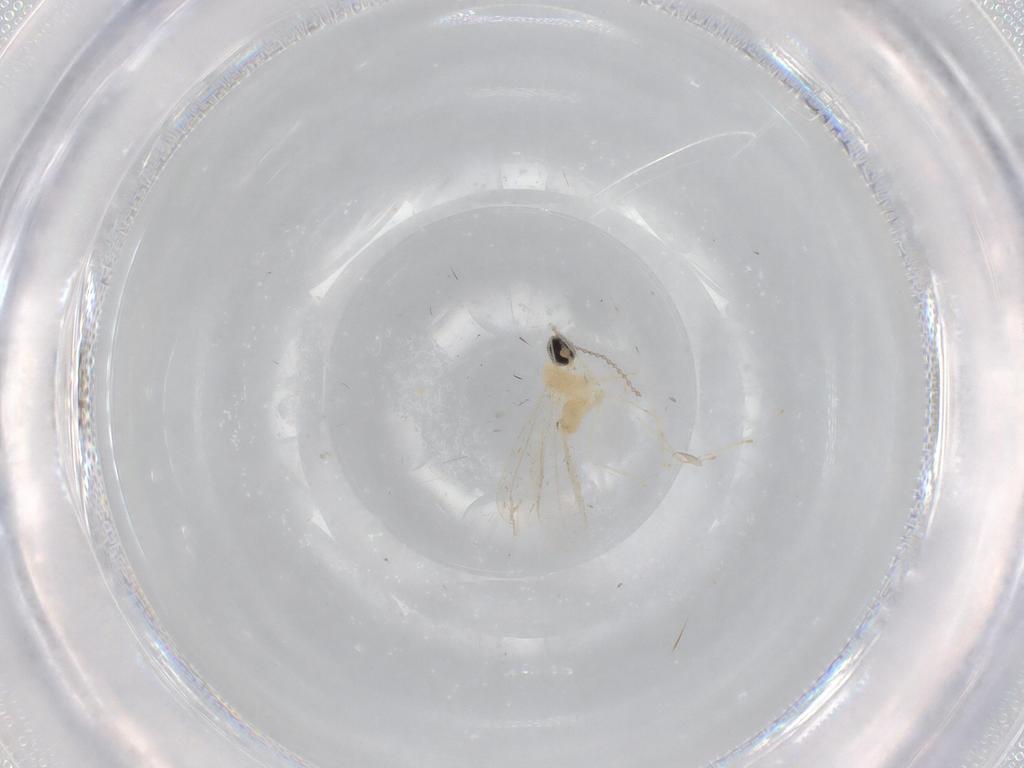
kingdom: Animalia
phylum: Arthropoda
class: Insecta
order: Diptera
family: Cecidomyiidae
